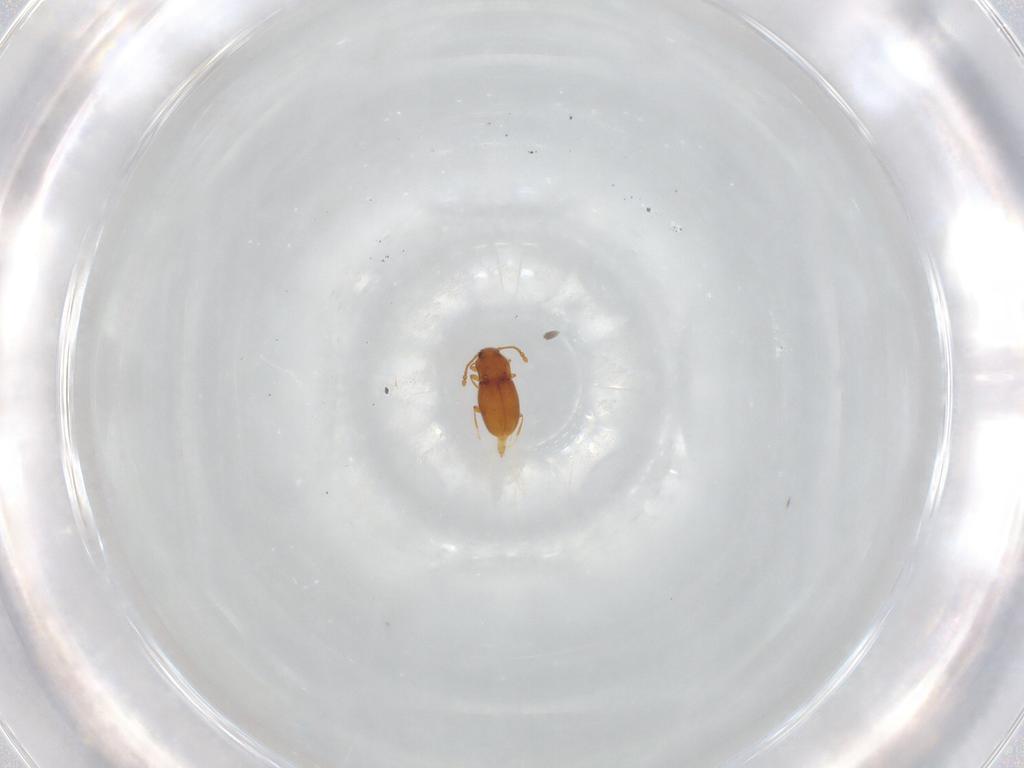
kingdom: Animalia
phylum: Arthropoda
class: Insecta
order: Coleoptera
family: Staphylinidae
